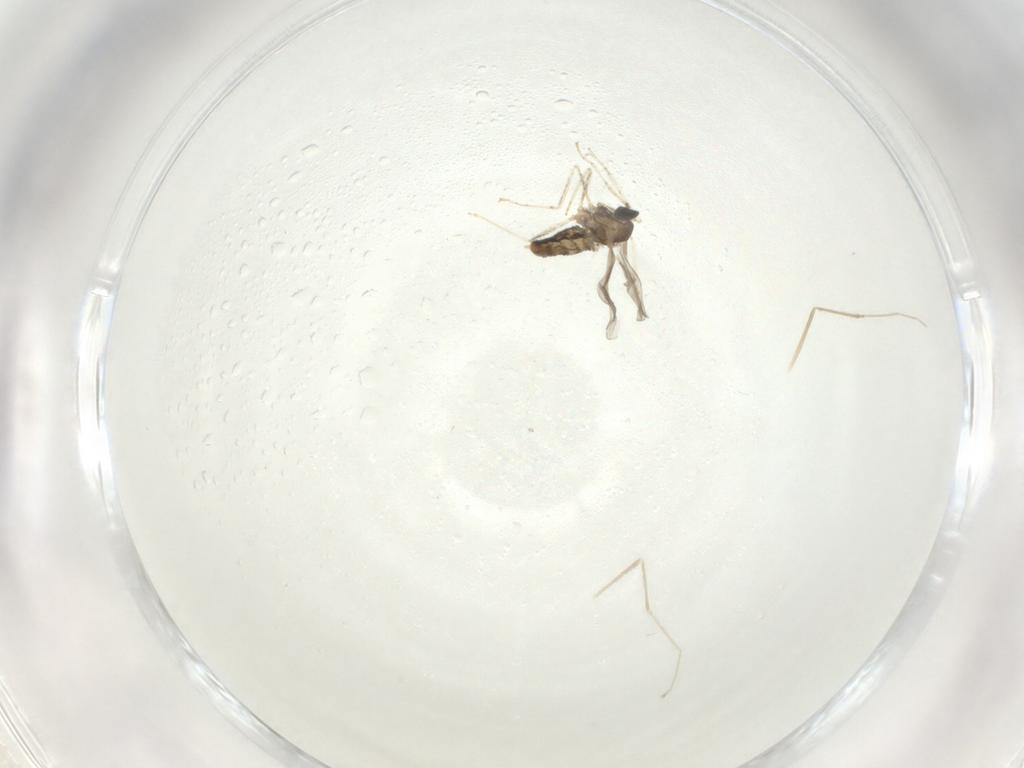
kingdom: Animalia
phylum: Arthropoda
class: Insecta
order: Diptera
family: Cecidomyiidae
